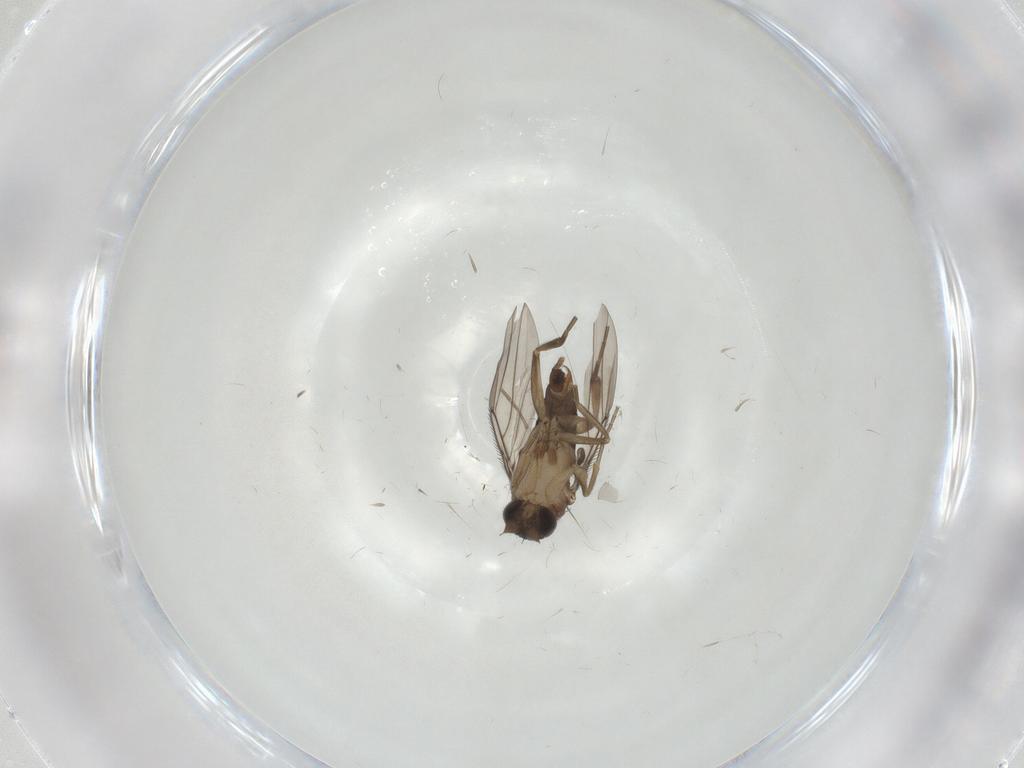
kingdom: Animalia
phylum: Arthropoda
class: Insecta
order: Diptera
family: Phoridae
